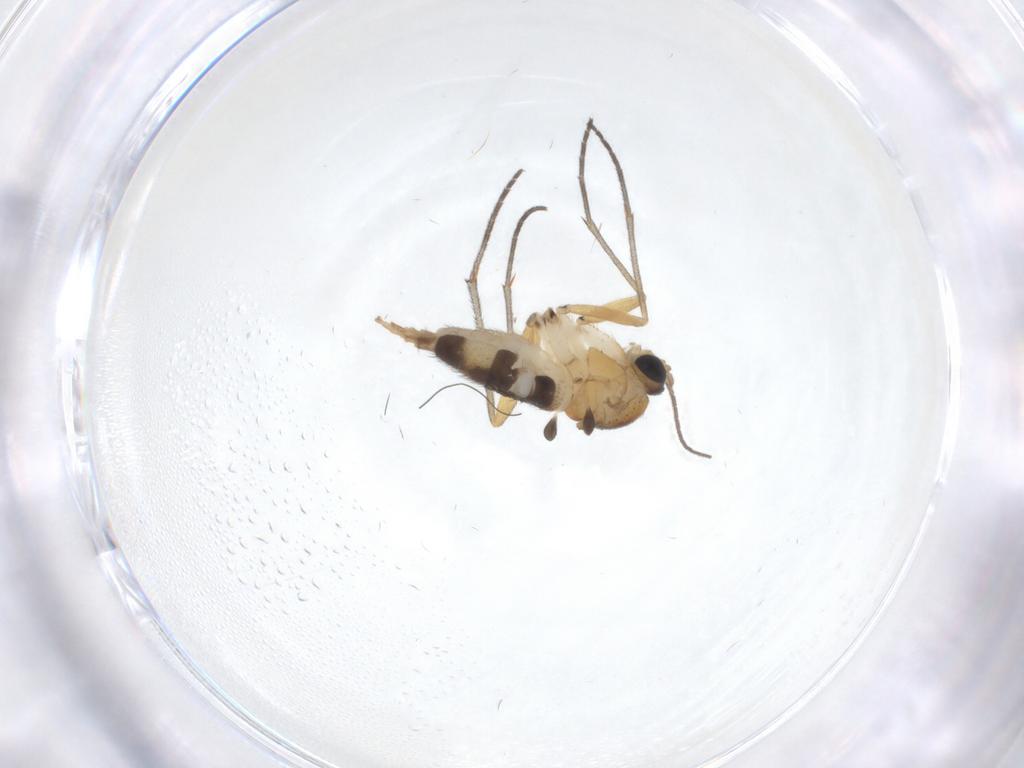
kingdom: Animalia
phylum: Arthropoda
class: Insecta
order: Diptera
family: Sciaridae
